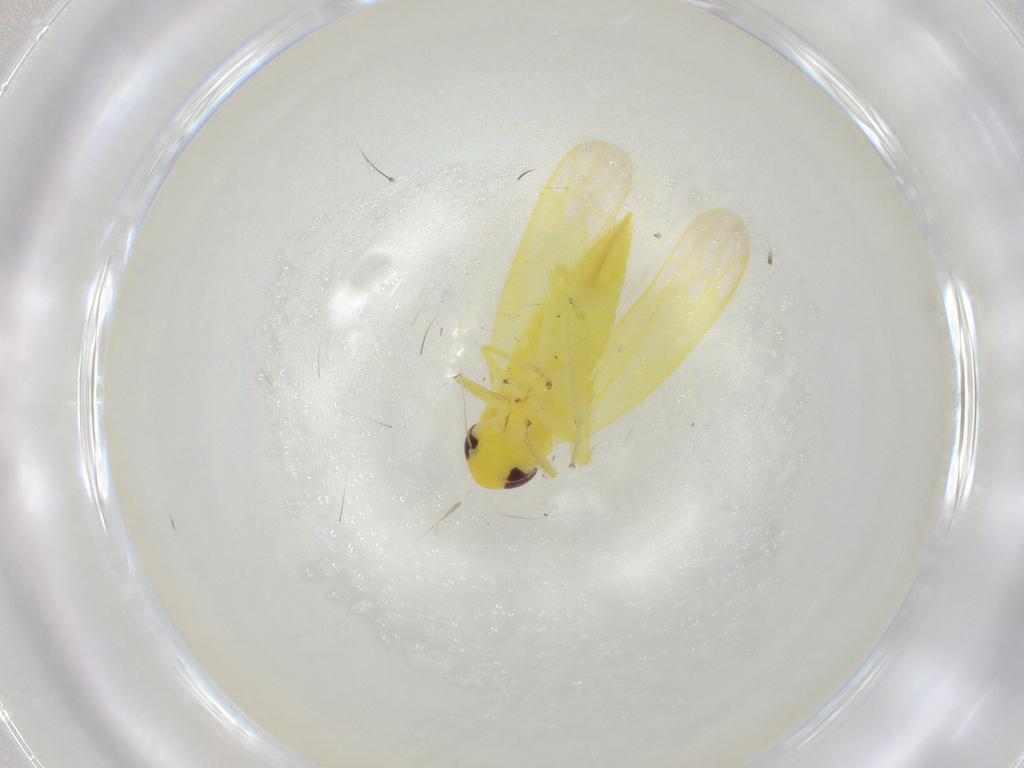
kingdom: Animalia
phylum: Arthropoda
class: Insecta
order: Hemiptera
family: Cicadellidae
